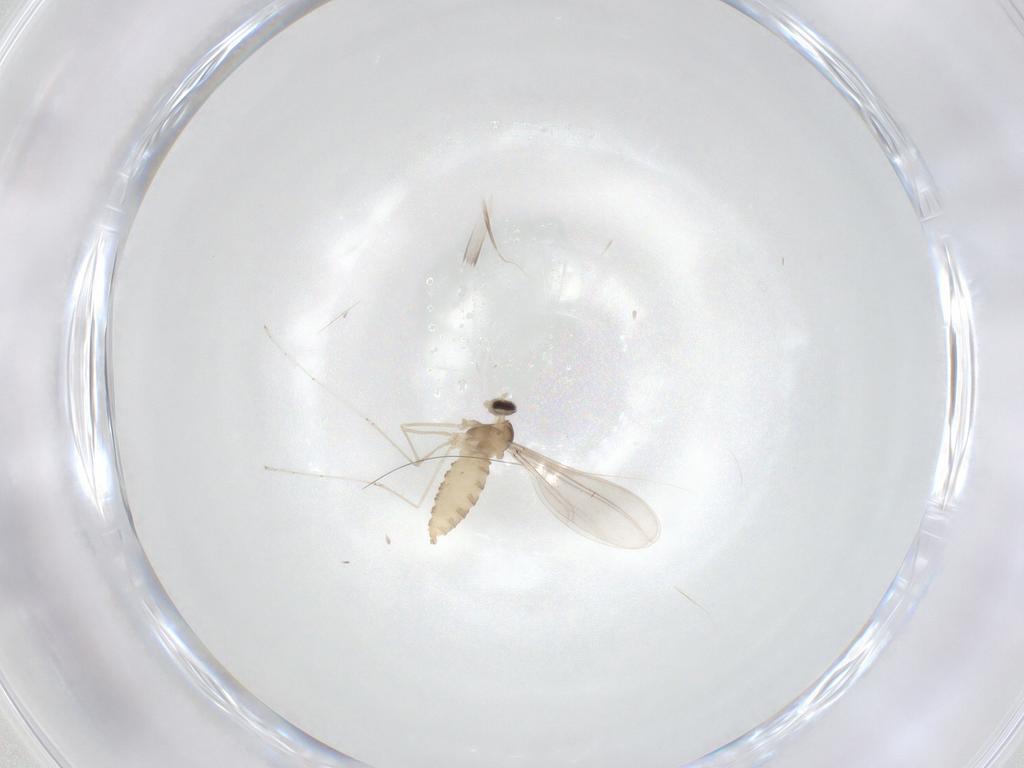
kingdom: Animalia
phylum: Arthropoda
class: Insecta
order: Diptera
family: Cecidomyiidae
